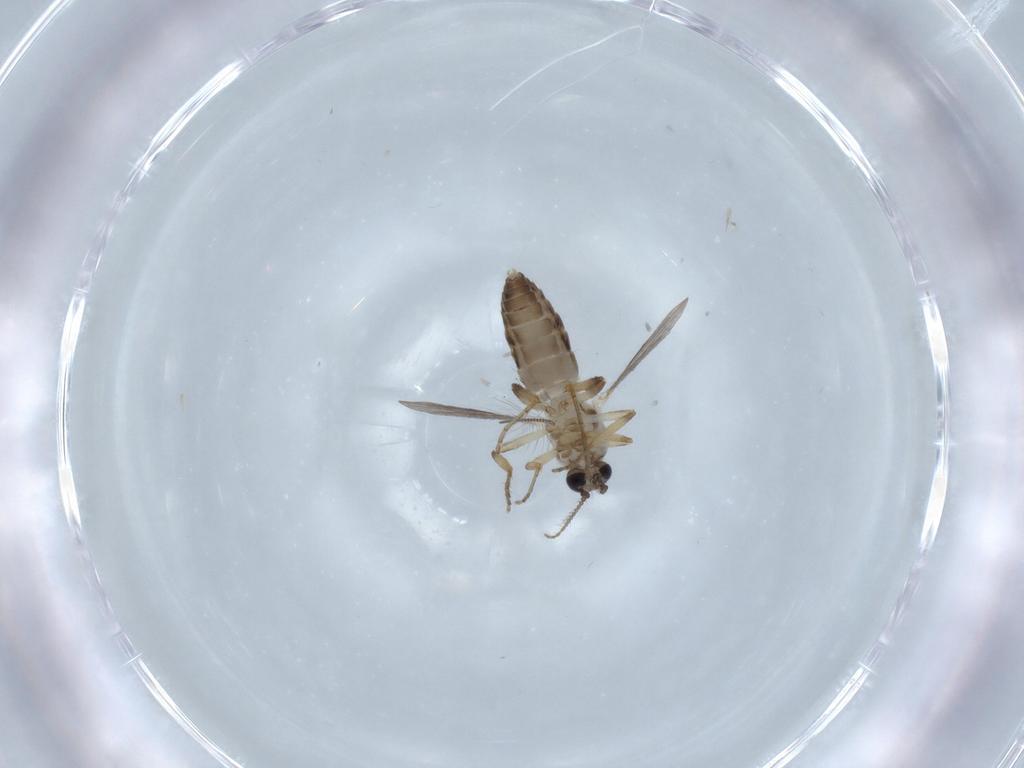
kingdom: Animalia
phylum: Arthropoda
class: Insecta
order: Diptera
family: Ceratopogonidae
